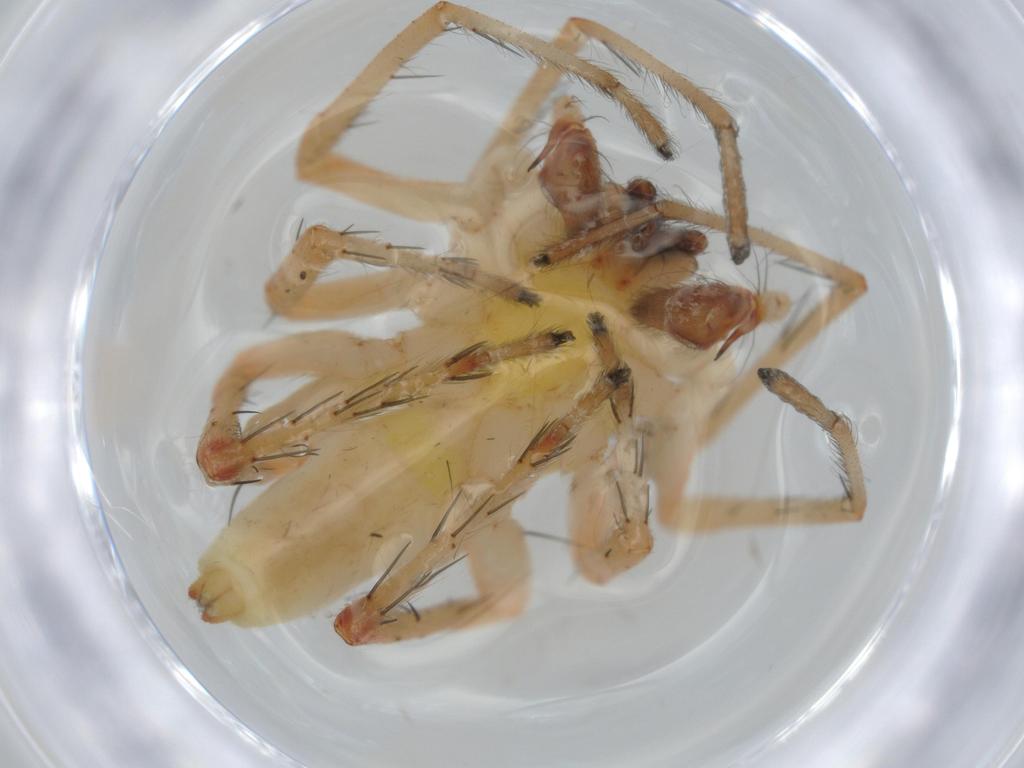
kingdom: Animalia
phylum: Arthropoda
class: Arachnida
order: Araneae
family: Anyphaenidae
